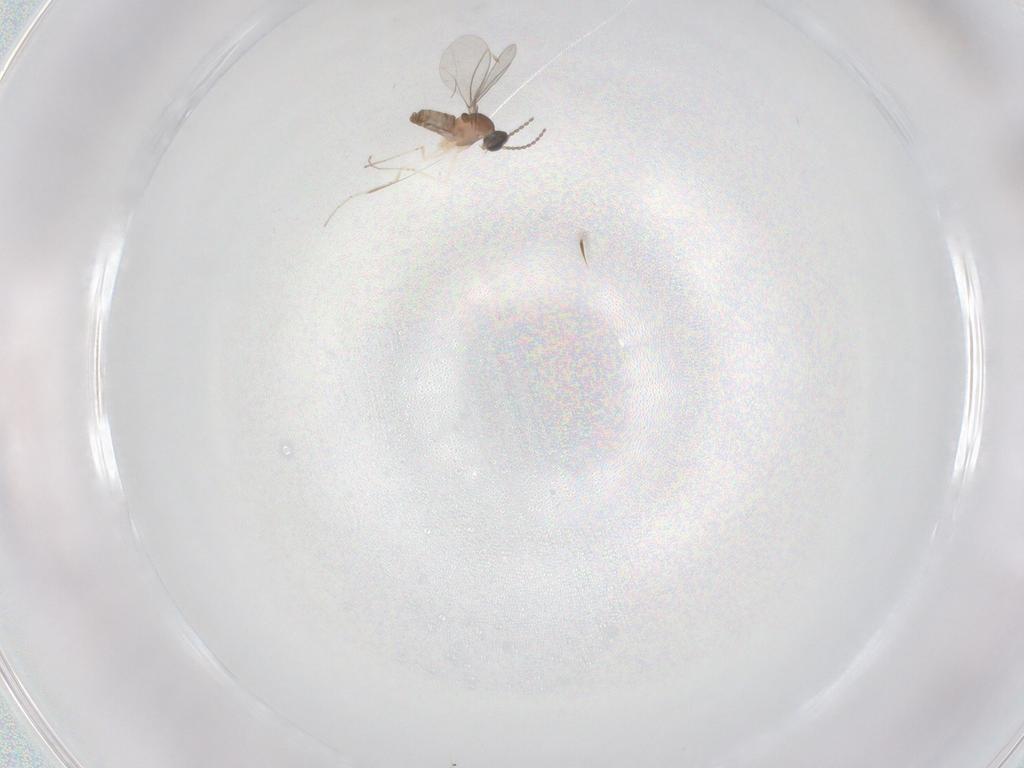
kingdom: Animalia
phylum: Arthropoda
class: Insecta
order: Diptera
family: Cecidomyiidae
